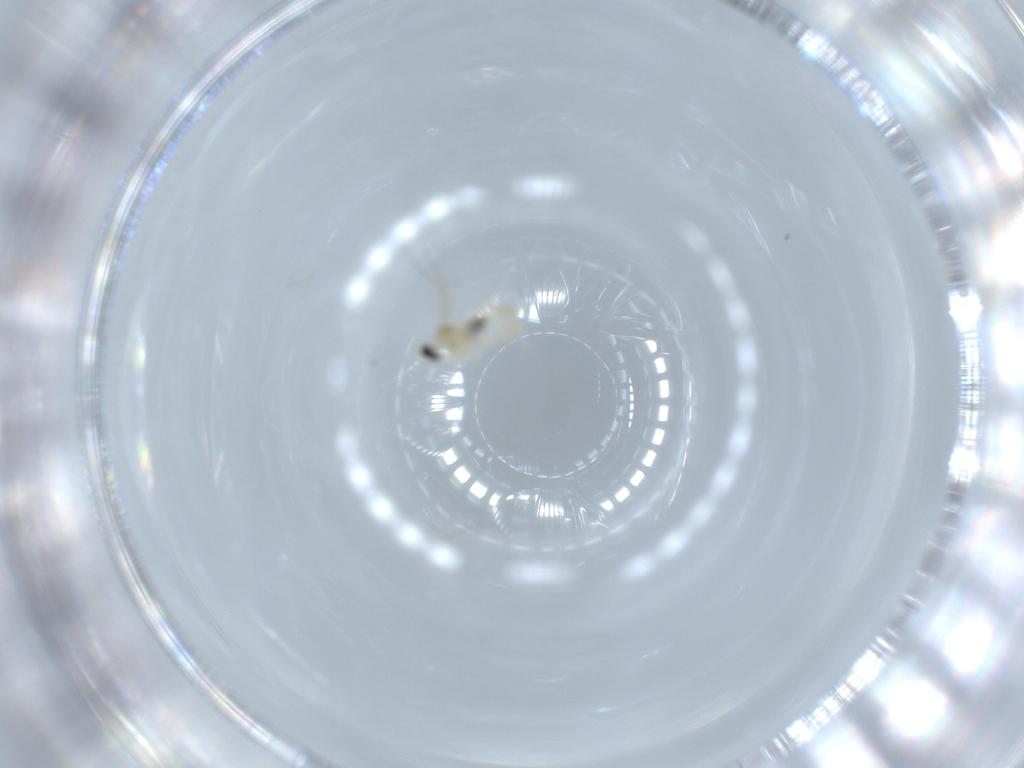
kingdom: Animalia
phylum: Arthropoda
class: Insecta
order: Diptera
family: Cecidomyiidae
